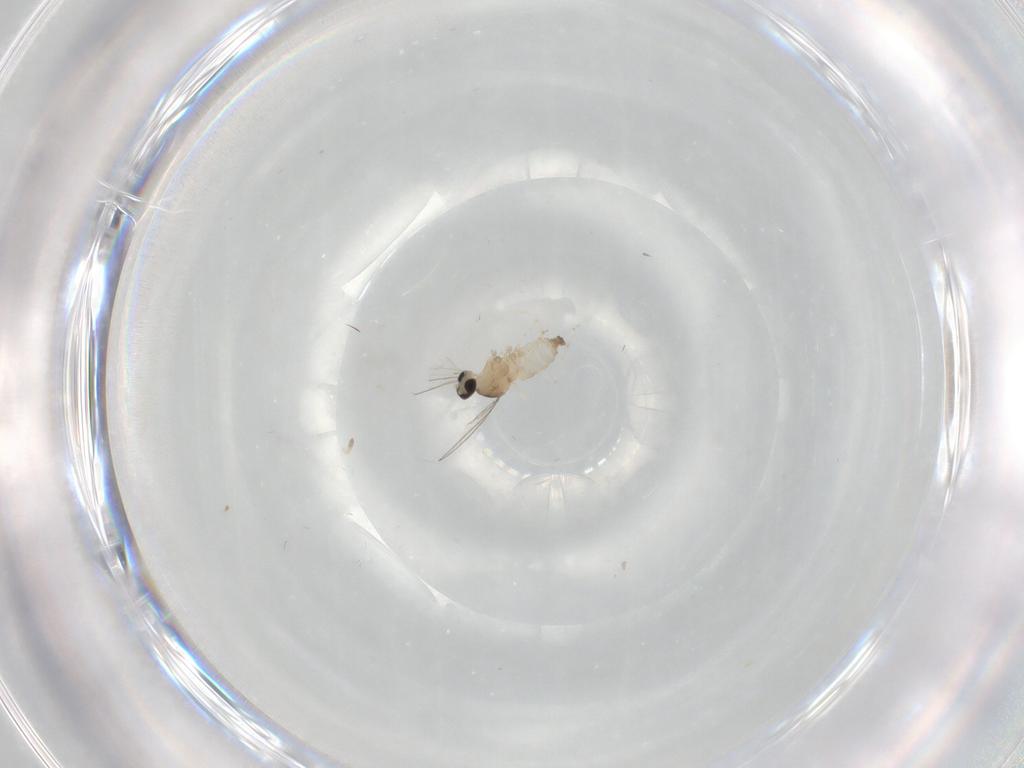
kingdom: Animalia
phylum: Arthropoda
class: Insecta
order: Diptera
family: Cecidomyiidae
